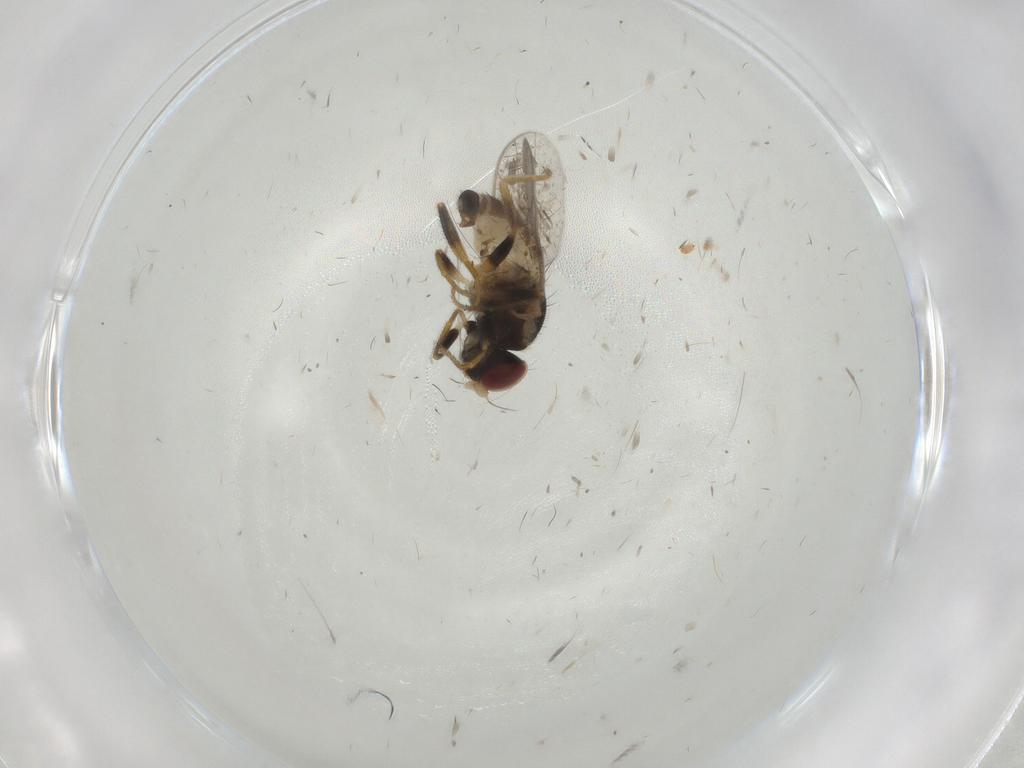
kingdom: Animalia
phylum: Arthropoda
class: Insecta
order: Diptera
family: Chloropidae
